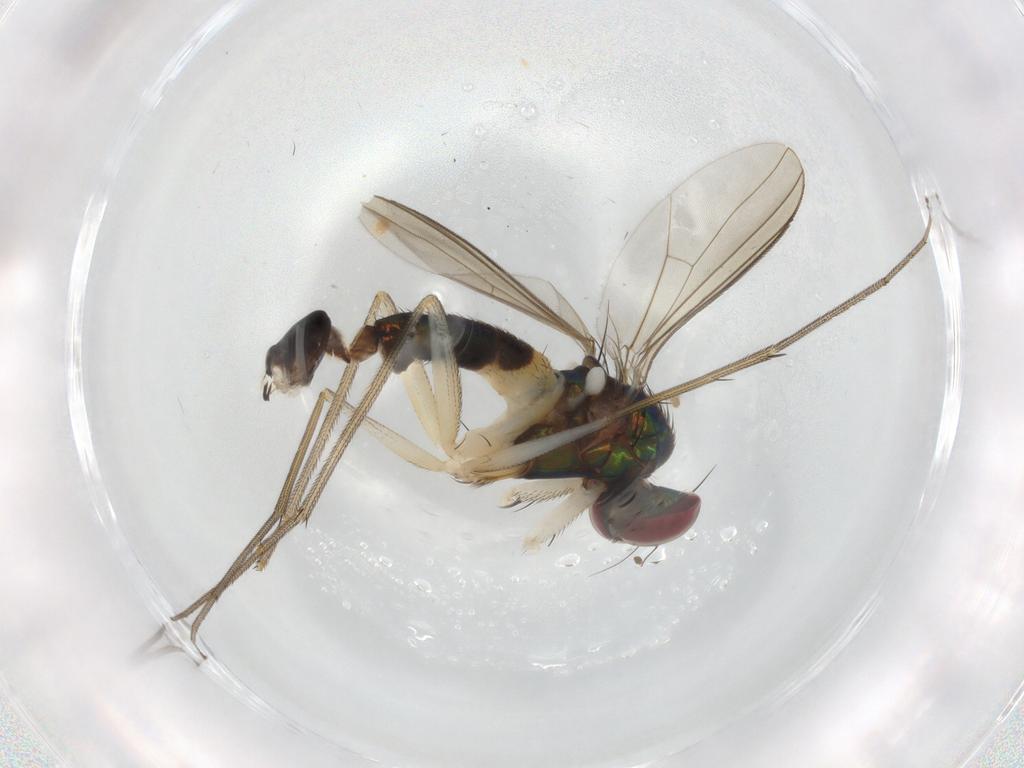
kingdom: Animalia
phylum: Arthropoda
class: Insecta
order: Diptera
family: Dolichopodidae
